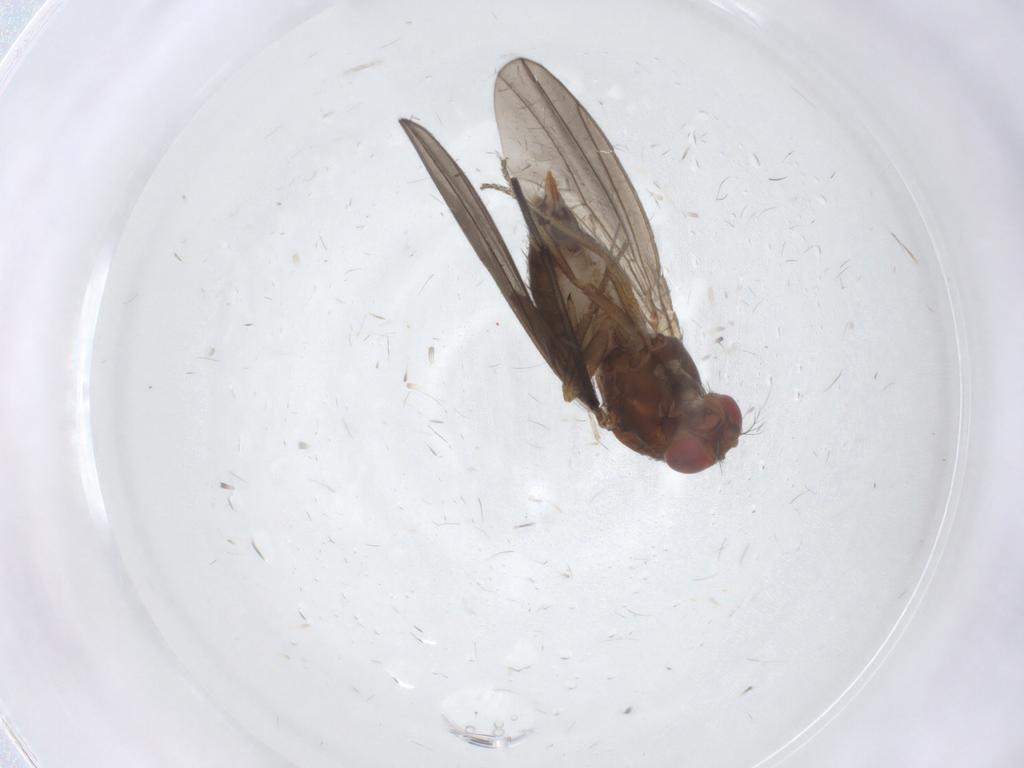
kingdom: Animalia
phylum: Arthropoda
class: Insecta
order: Diptera
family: Drosophilidae
